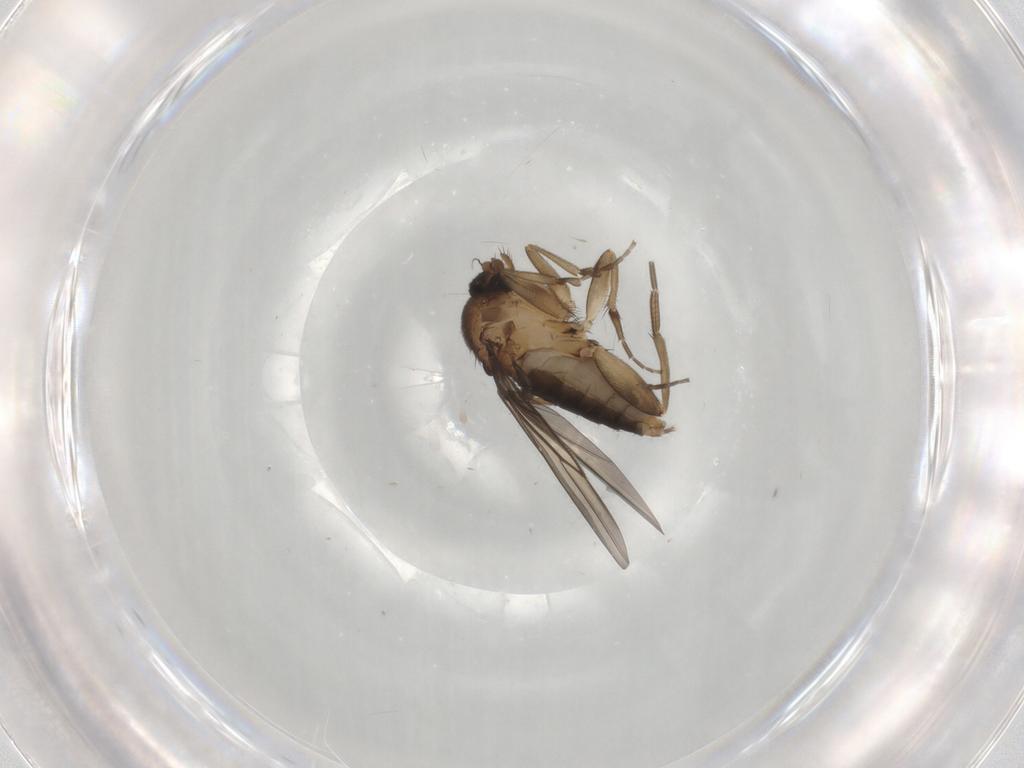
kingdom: Animalia
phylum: Arthropoda
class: Insecta
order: Diptera
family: Phoridae
